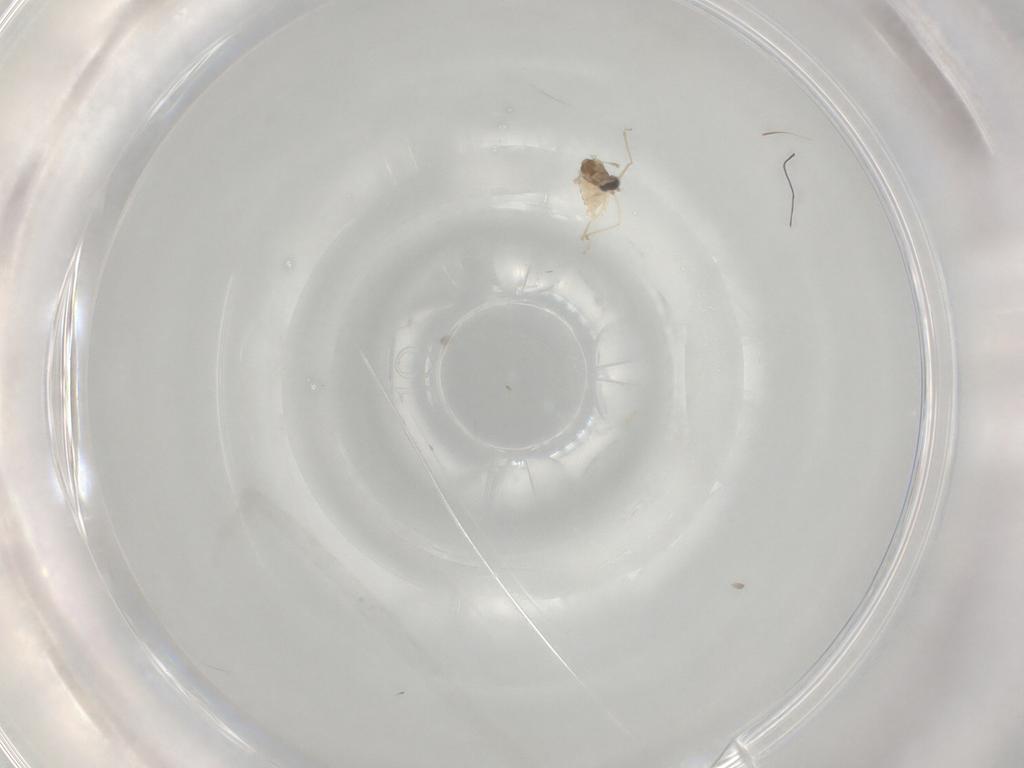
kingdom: Animalia
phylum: Arthropoda
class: Insecta
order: Diptera
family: Cecidomyiidae
